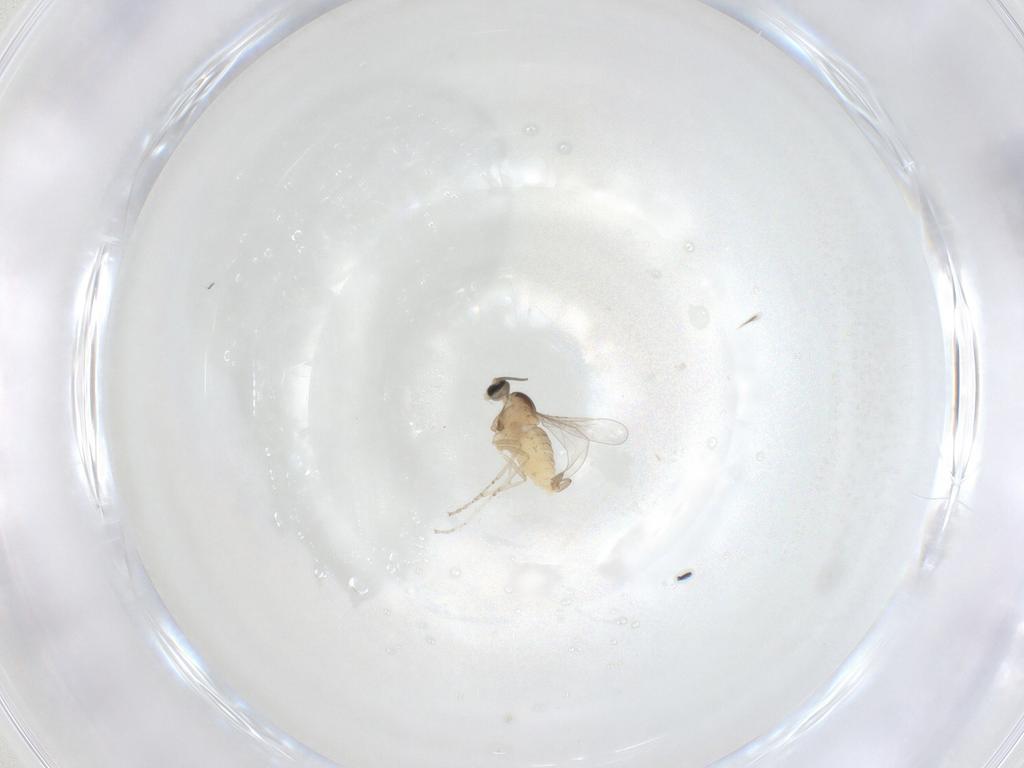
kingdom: Animalia
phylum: Arthropoda
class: Insecta
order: Diptera
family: Cecidomyiidae
